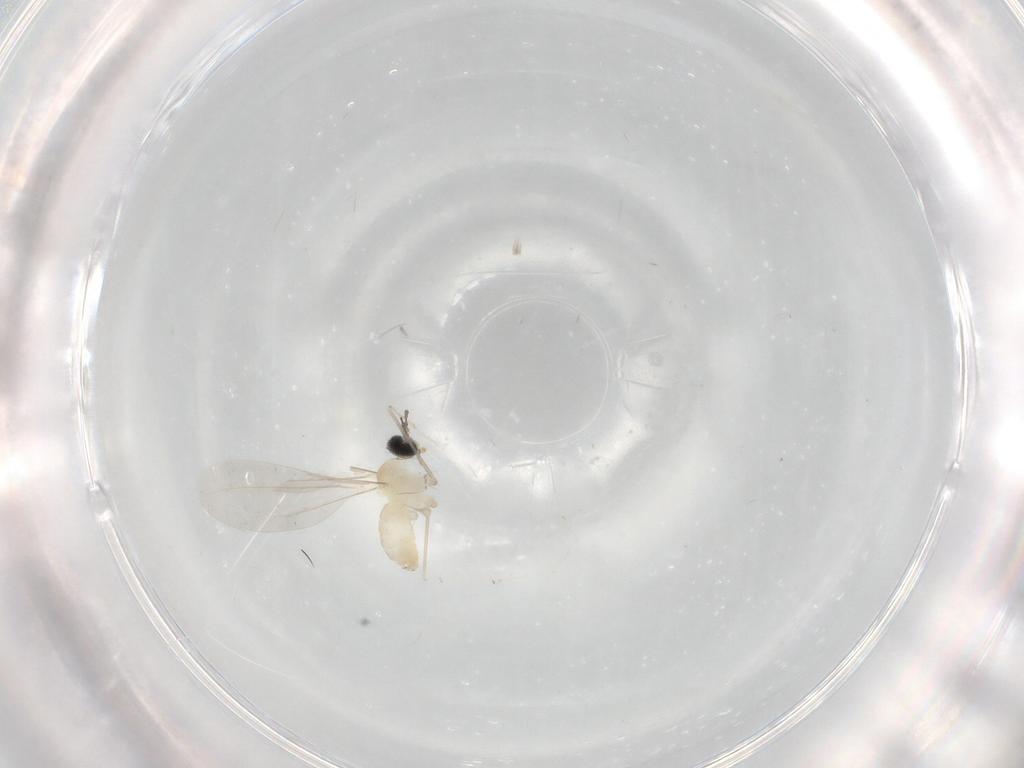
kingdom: Animalia
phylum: Arthropoda
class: Insecta
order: Diptera
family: Cecidomyiidae
